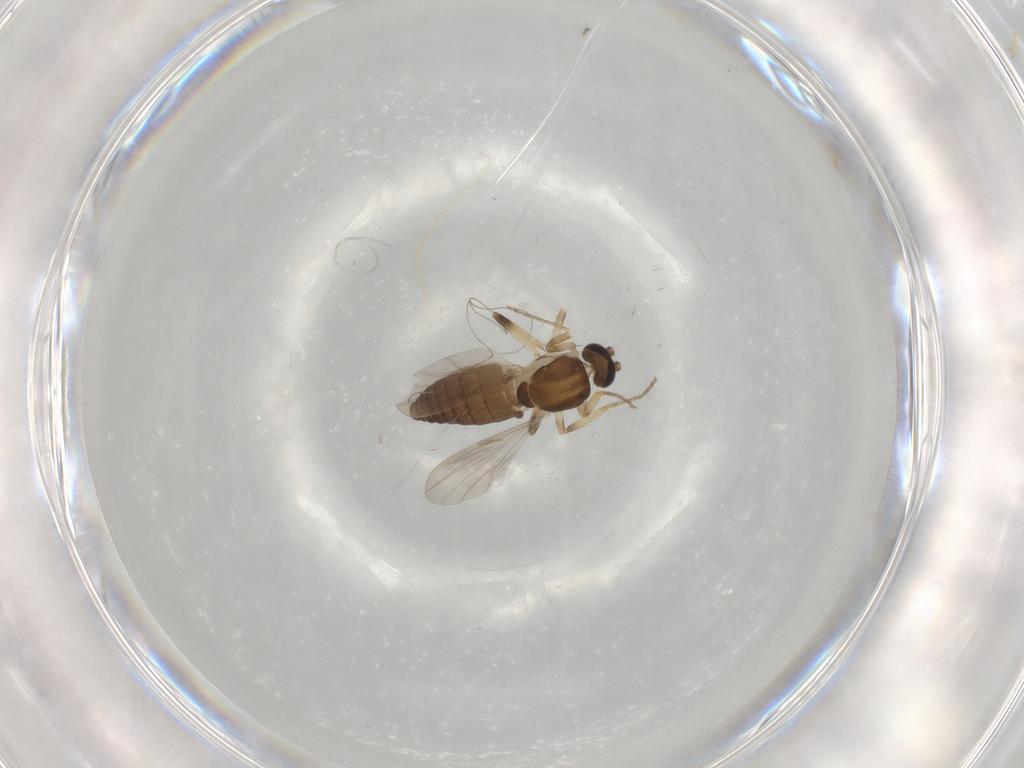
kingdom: Animalia
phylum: Arthropoda
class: Insecta
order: Diptera
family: Ceratopogonidae
